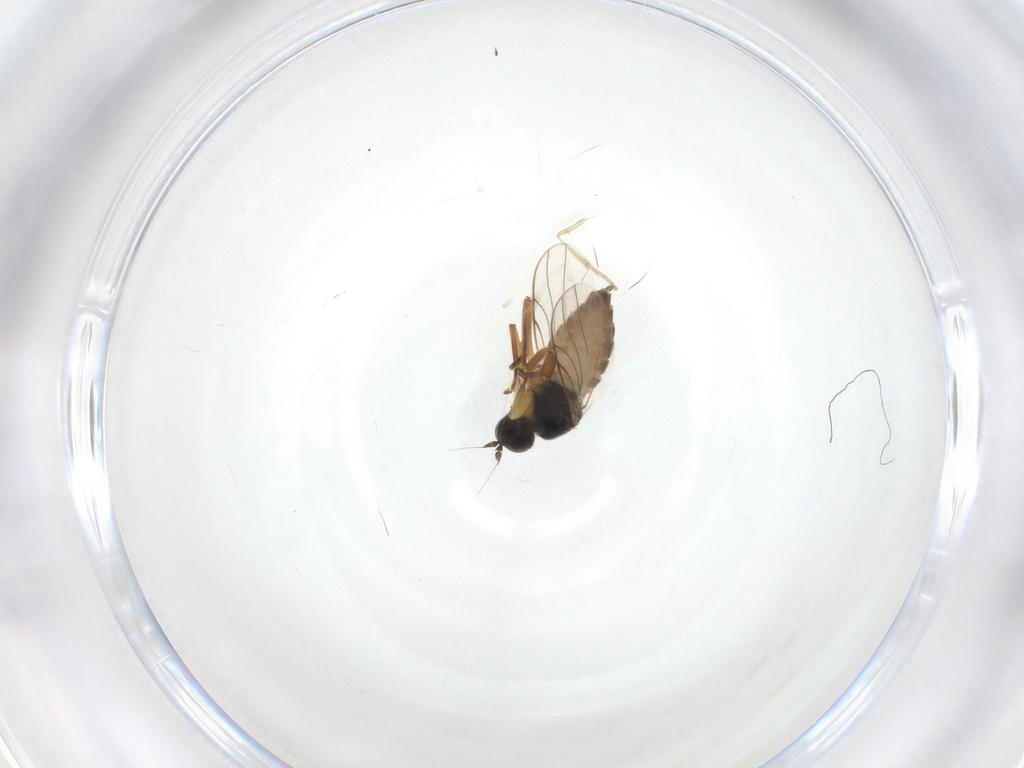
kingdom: Animalia
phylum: Arthropoda
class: Insecta
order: Diptera
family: Hybotidae
